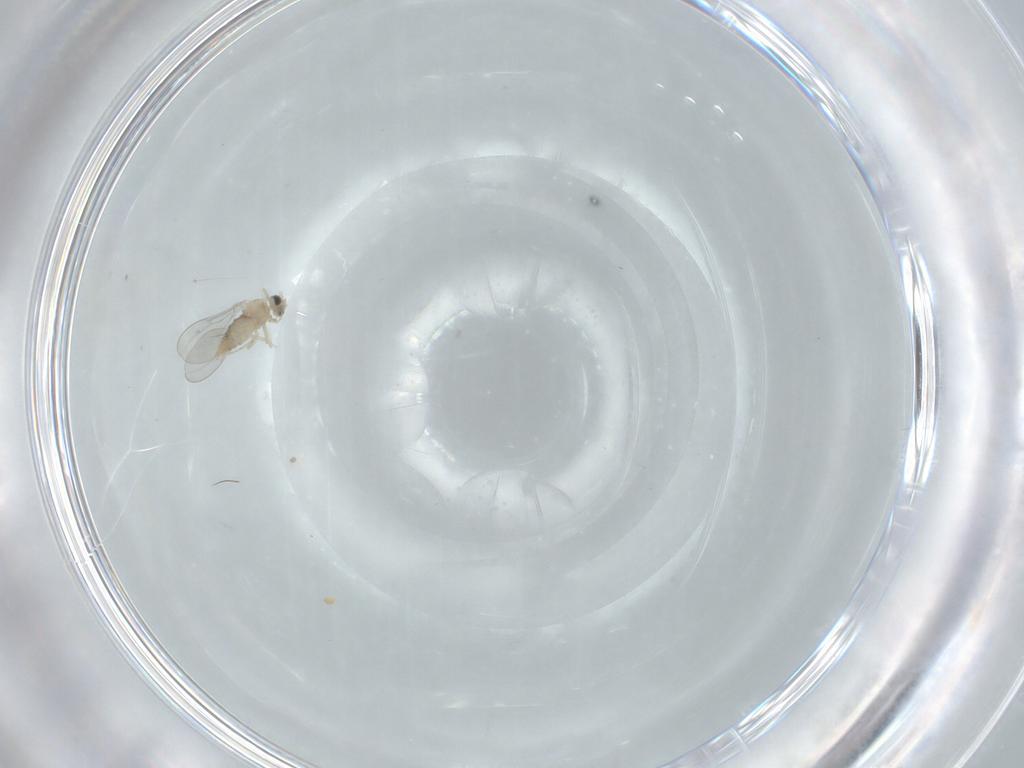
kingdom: Animalia
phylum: Arthropoda
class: Insecta
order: Diptera
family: Cecidomyiidae
